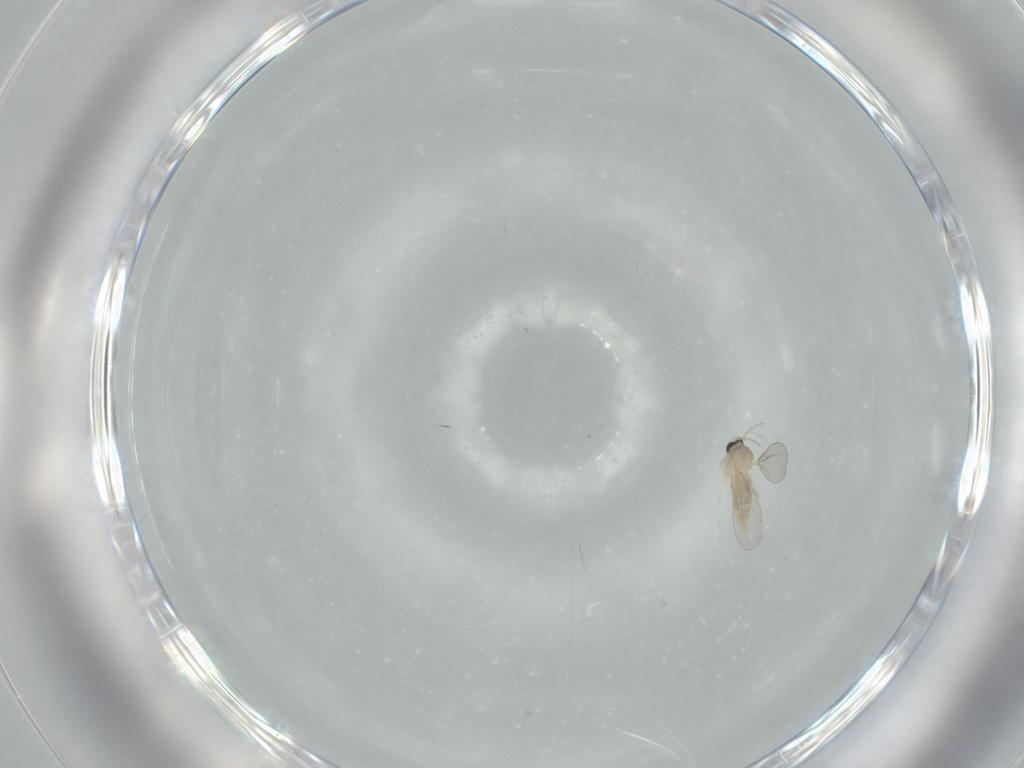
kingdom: Animalia
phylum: Arthropoda
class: Insecta
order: Diptera
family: Cecidomyiidae
